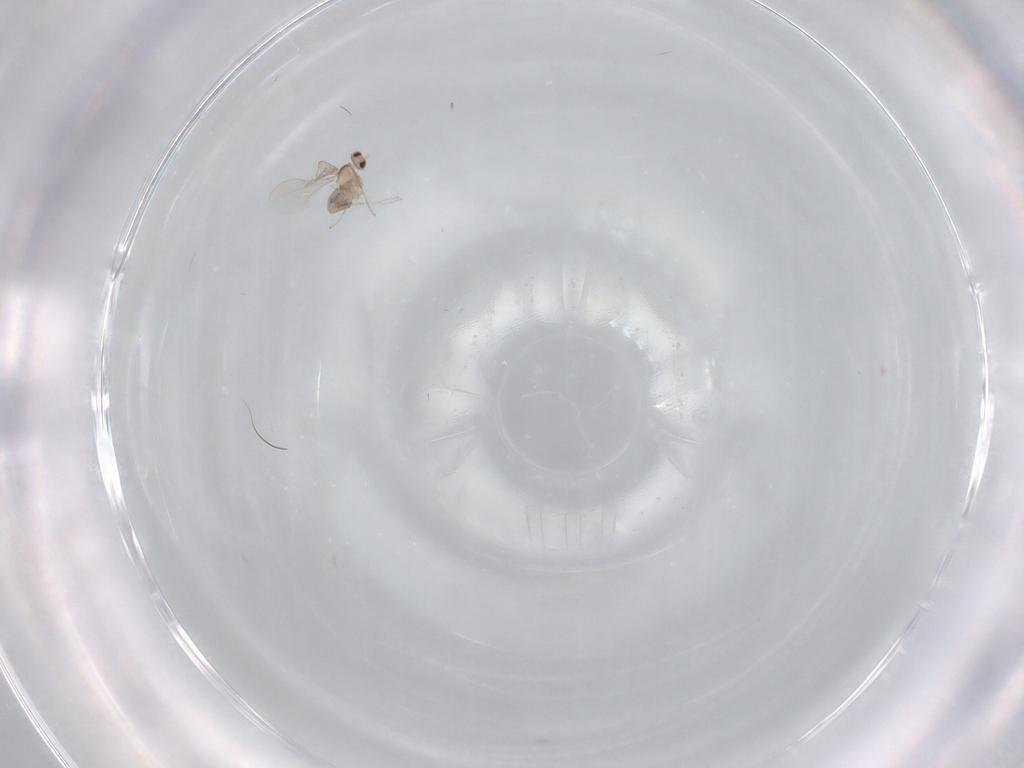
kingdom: Animalia
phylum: Arthropoda
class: Insecta
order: Diptera
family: Cecidomyiidae
